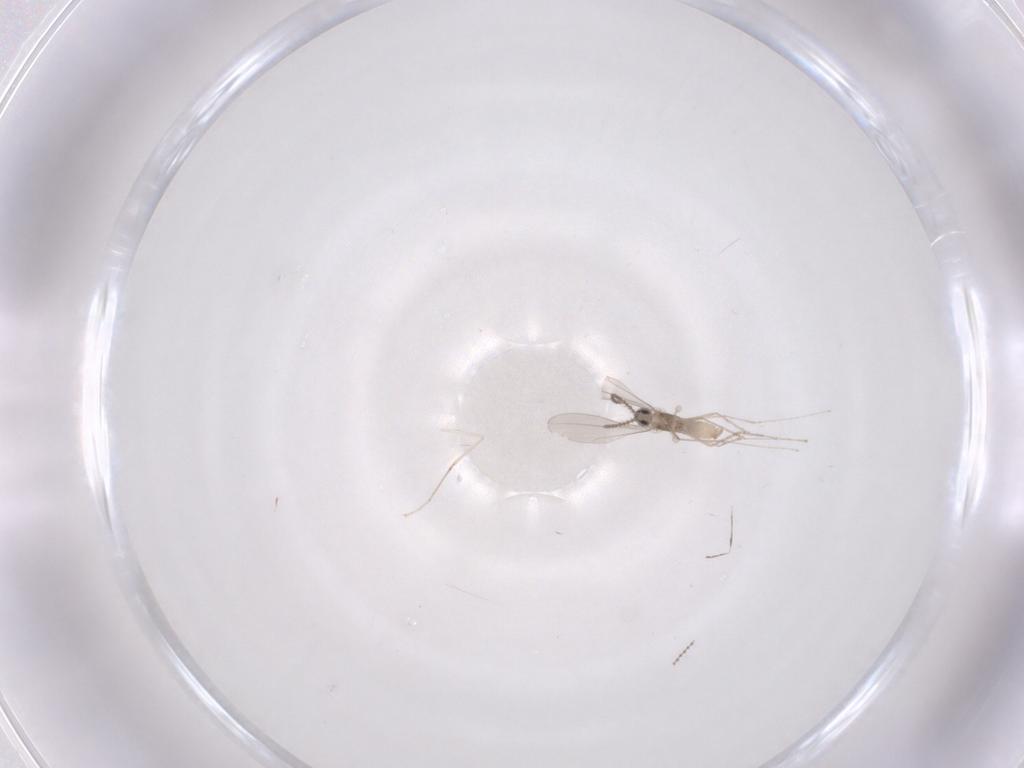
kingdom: Animalia
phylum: Arthropoda
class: Insecta
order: Diptera
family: Cecidomyiidae
